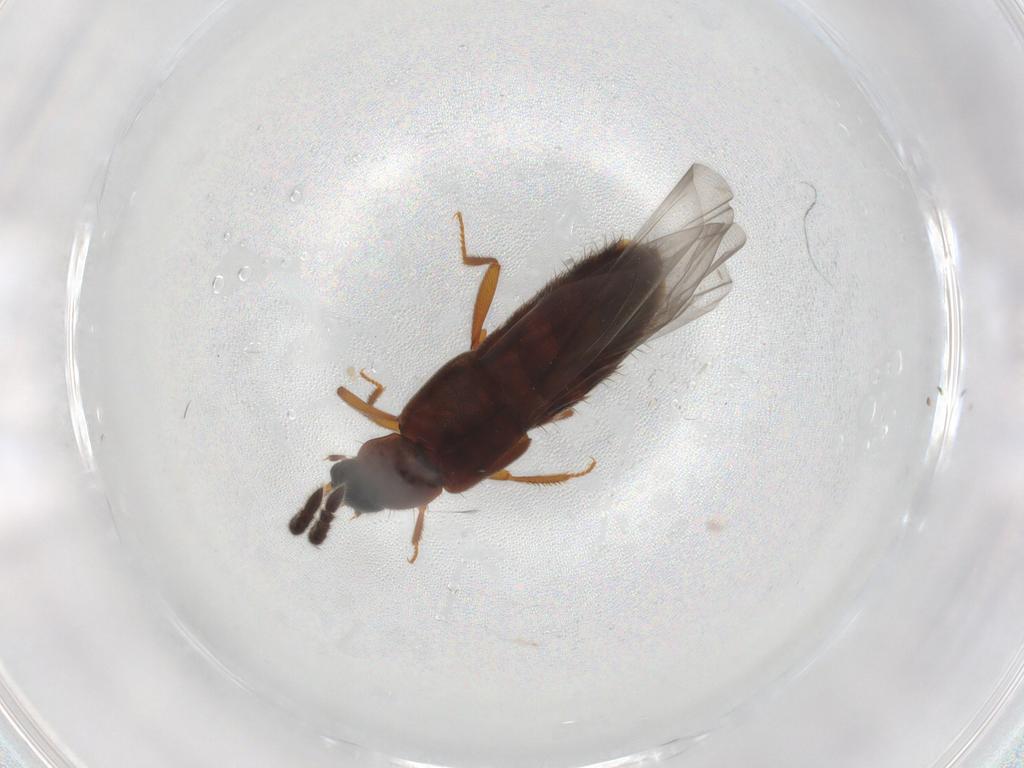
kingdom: Animalia
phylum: Arthropoda
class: Insecta
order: Coleoptera
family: Staphylinidae
